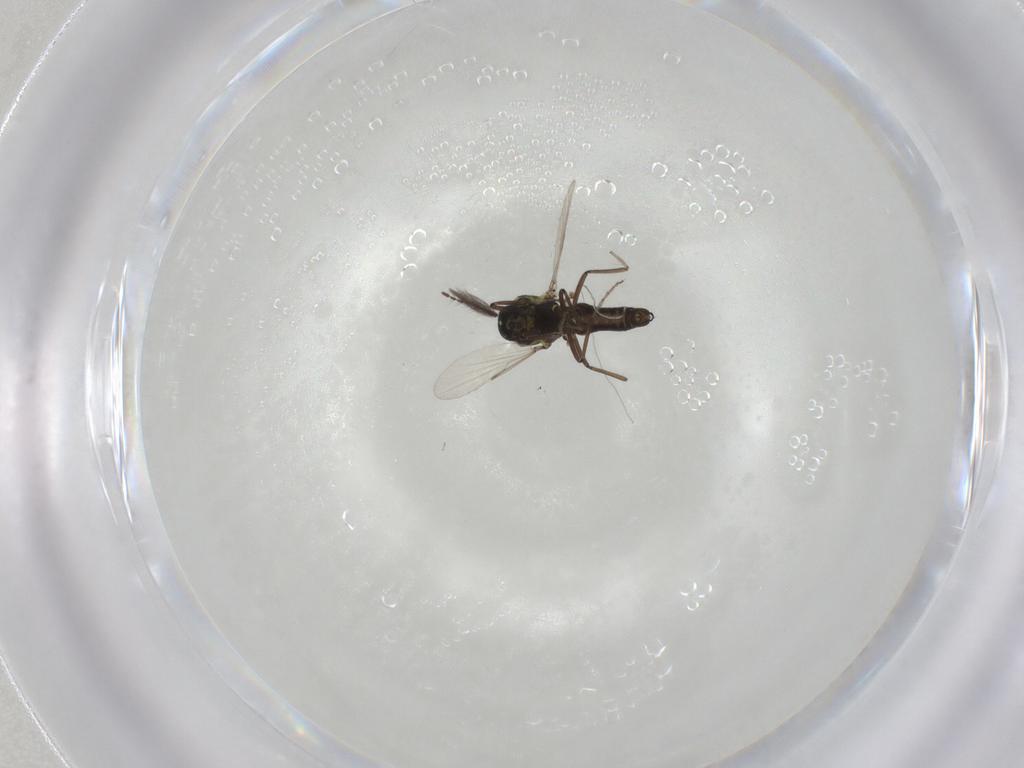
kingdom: Animalia
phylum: Arthropoda
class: Insecta
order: Diptera
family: Ceratopogonidae
